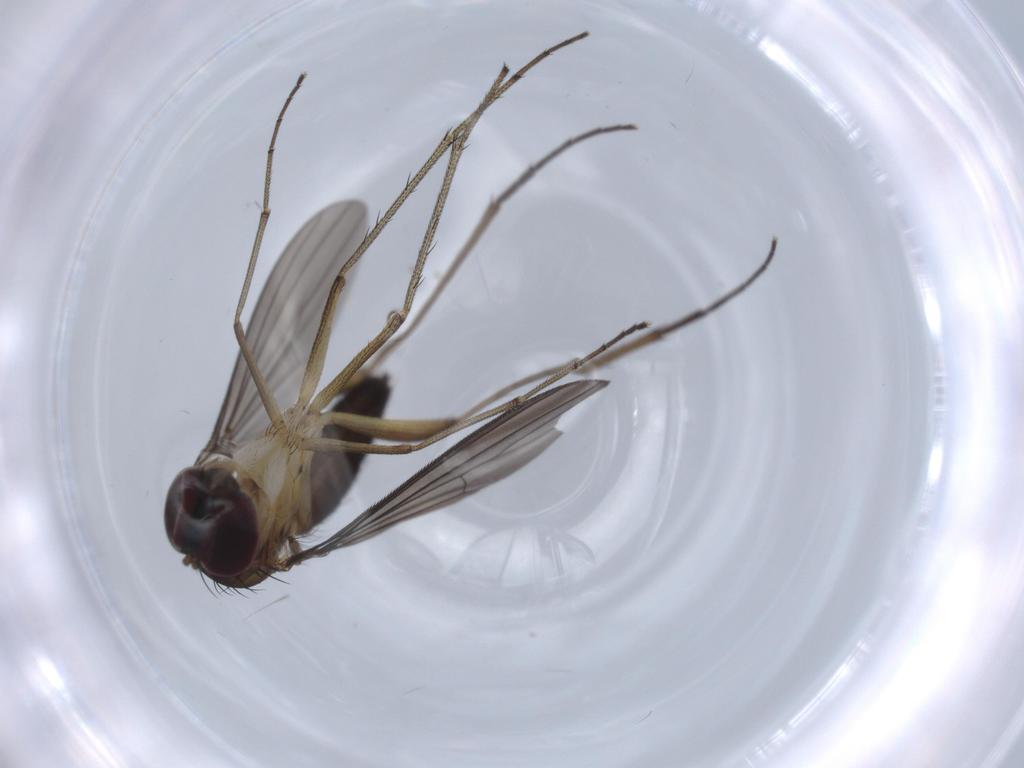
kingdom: Animalia
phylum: Arthropoda
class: Insecta
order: Diptera
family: Dolichopodidae
